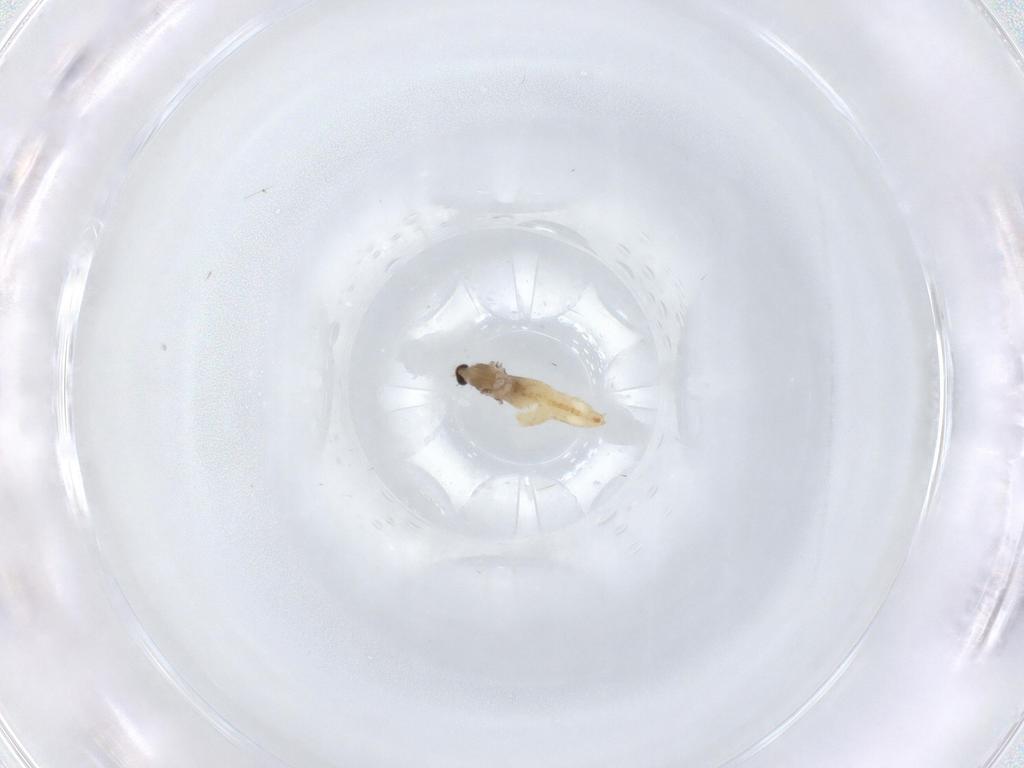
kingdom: Animalia
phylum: Arthropoda
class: Insecta
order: Diptera
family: Cecidomyiidae
